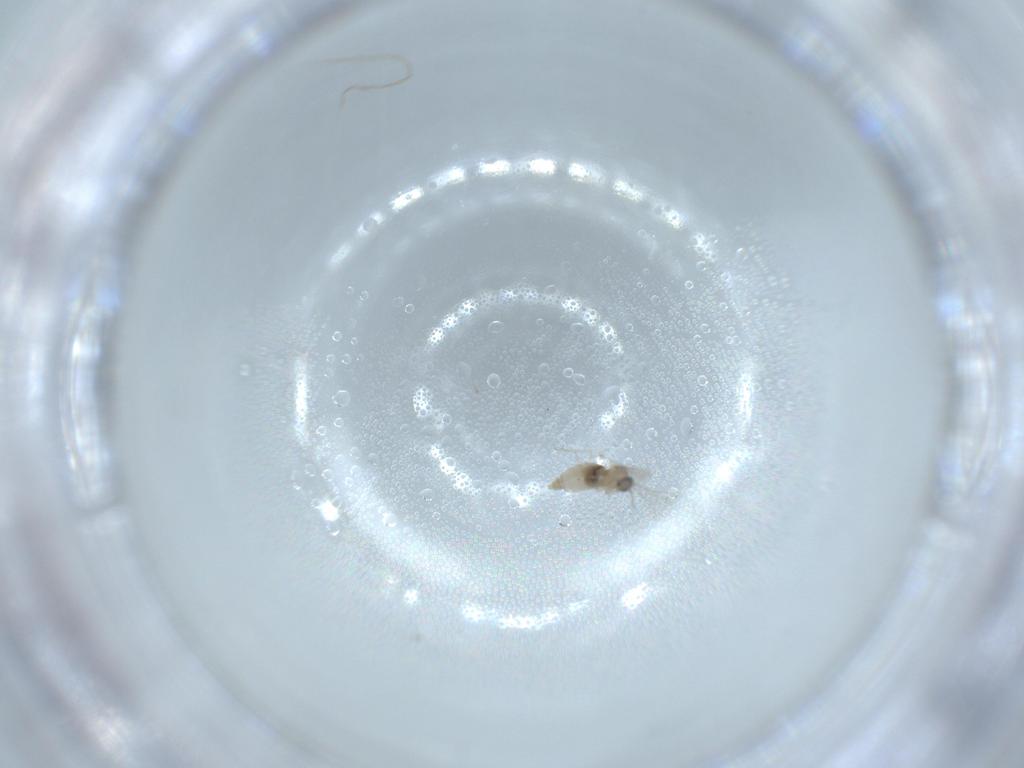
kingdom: Animalia
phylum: Arthropoda
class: Insecta
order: Diptera
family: Cecidomyiidae
